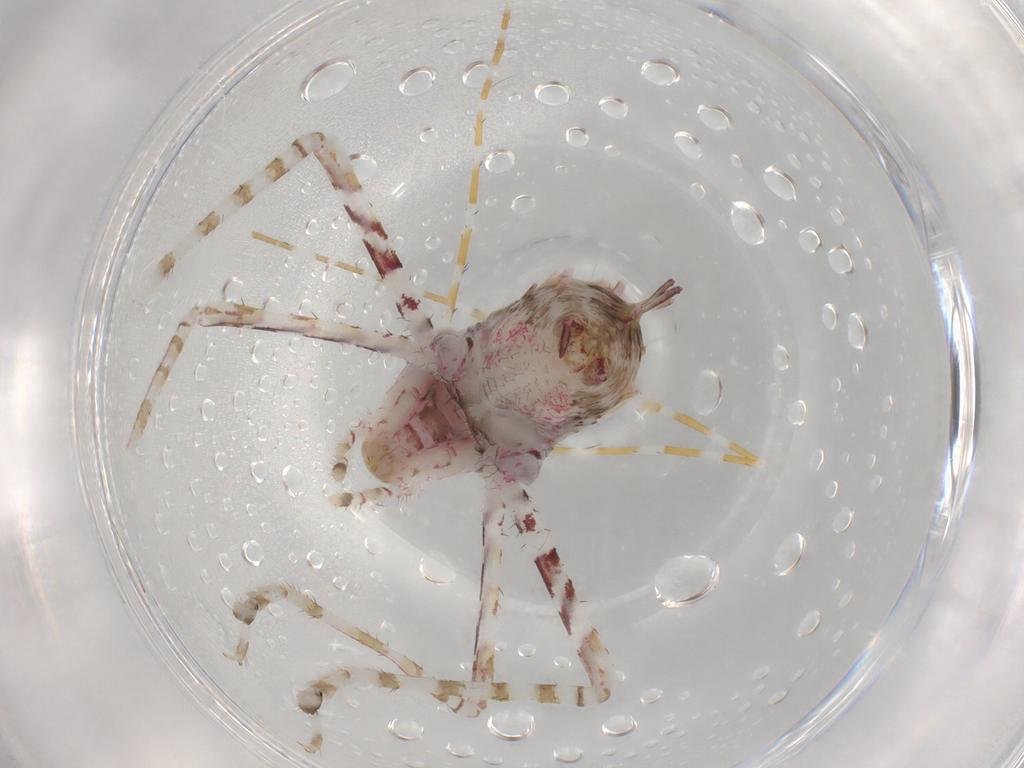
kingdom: Animalia
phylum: Arthropoda
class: Insecta
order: Orthoptera
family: Tettigoniidae
